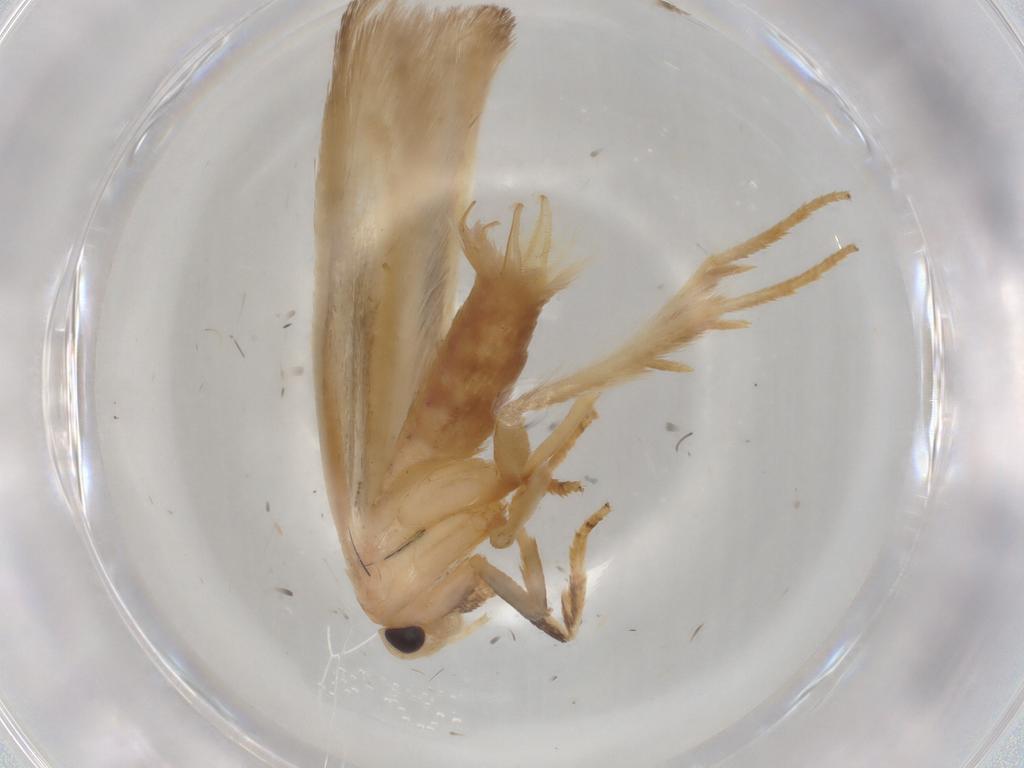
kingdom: Animalia
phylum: Arthropoda
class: Insecta
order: Lepidoptera
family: Geometridae
